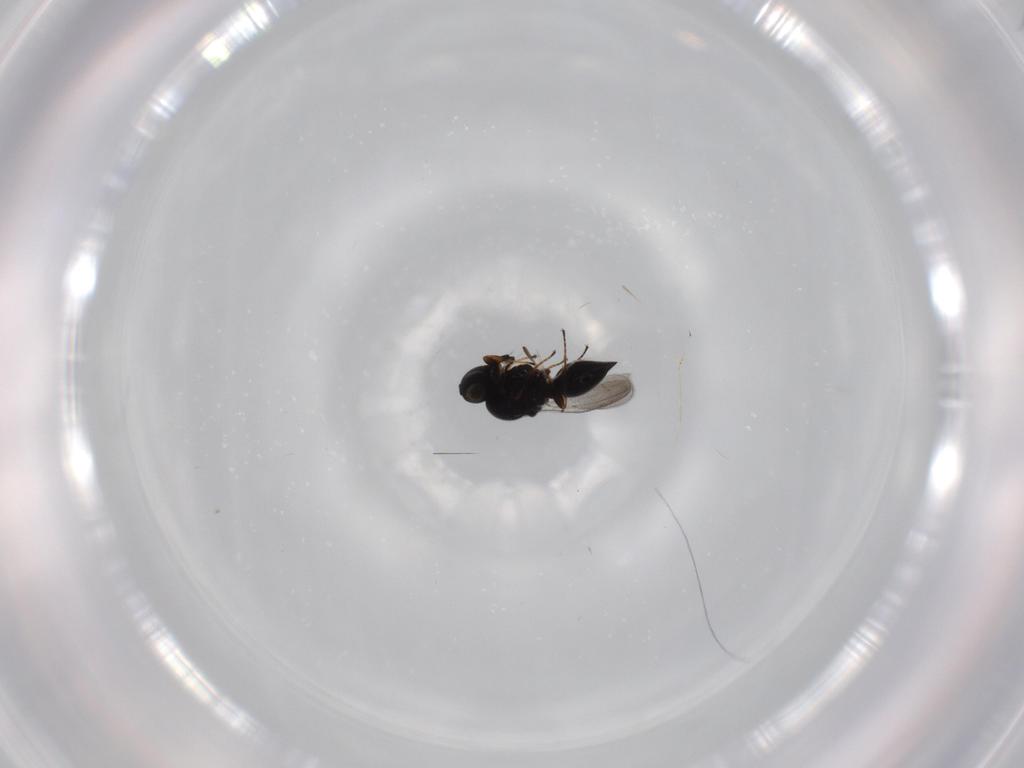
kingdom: Animalia
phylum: Arthropoda
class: Insecta
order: Hymenoptera
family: Platygastridae
